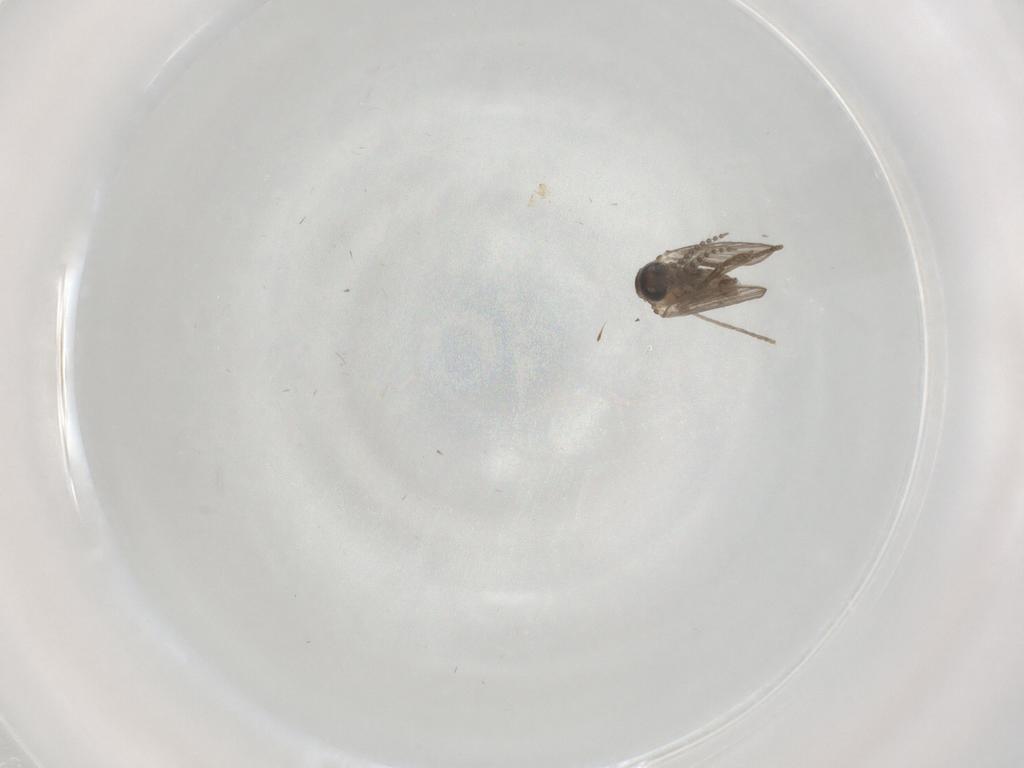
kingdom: Animalia
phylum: Arthropoda
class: Insecta
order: Diptera
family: Psychodidae
